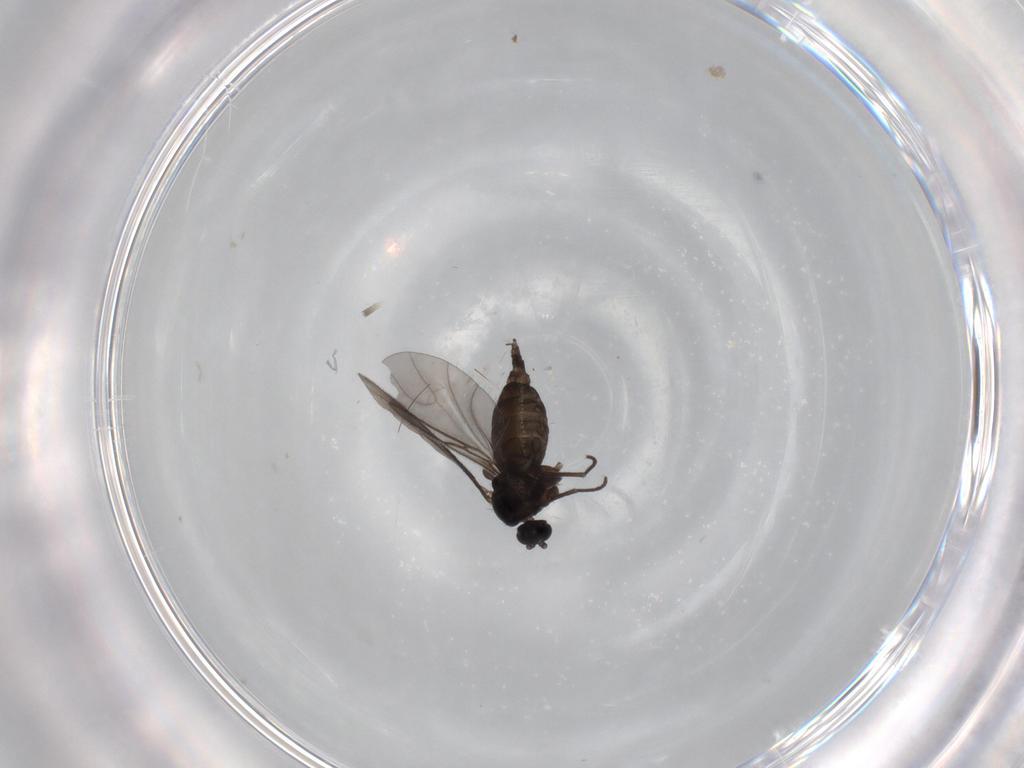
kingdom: Animalia
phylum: Arthropoda
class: Insecta
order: Diptera
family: Sciaridae
